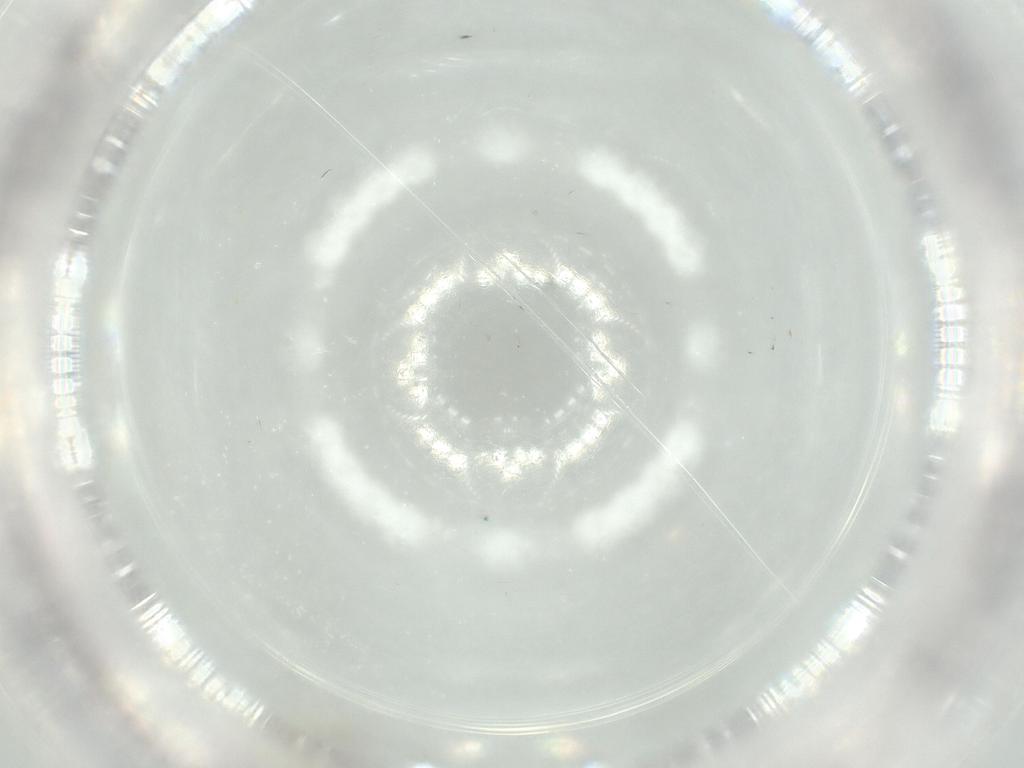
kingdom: Animalia
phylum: Arthropoda
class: Insecta
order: Diptera
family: Cecidomyiidae
